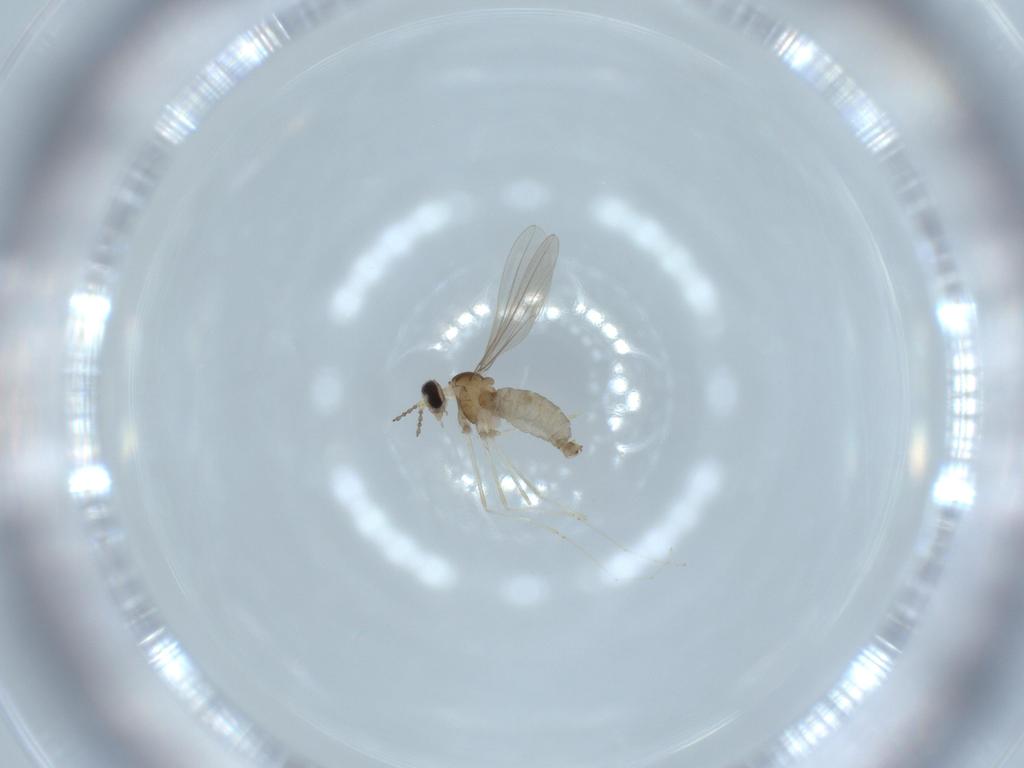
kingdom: Animalia
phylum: Arthropoda
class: Insecta
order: Diptera
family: Cecidomyiidae
